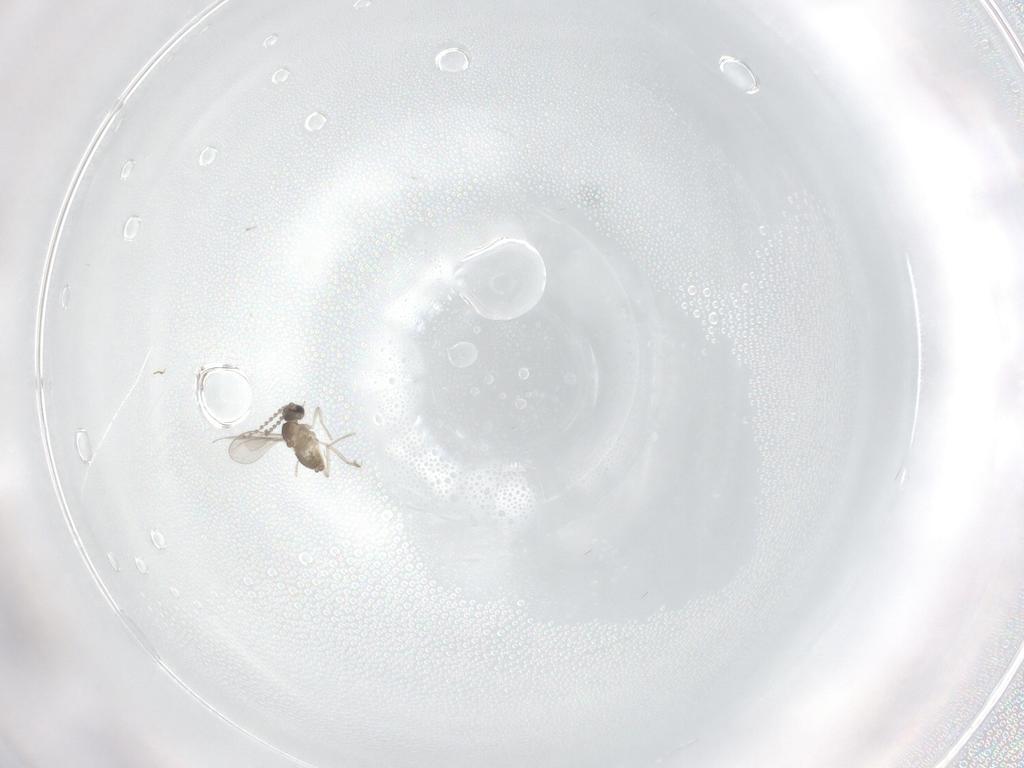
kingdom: Animalia
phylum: Arthropoda
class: Insecta
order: Diptera
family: Cecidomyiidae
